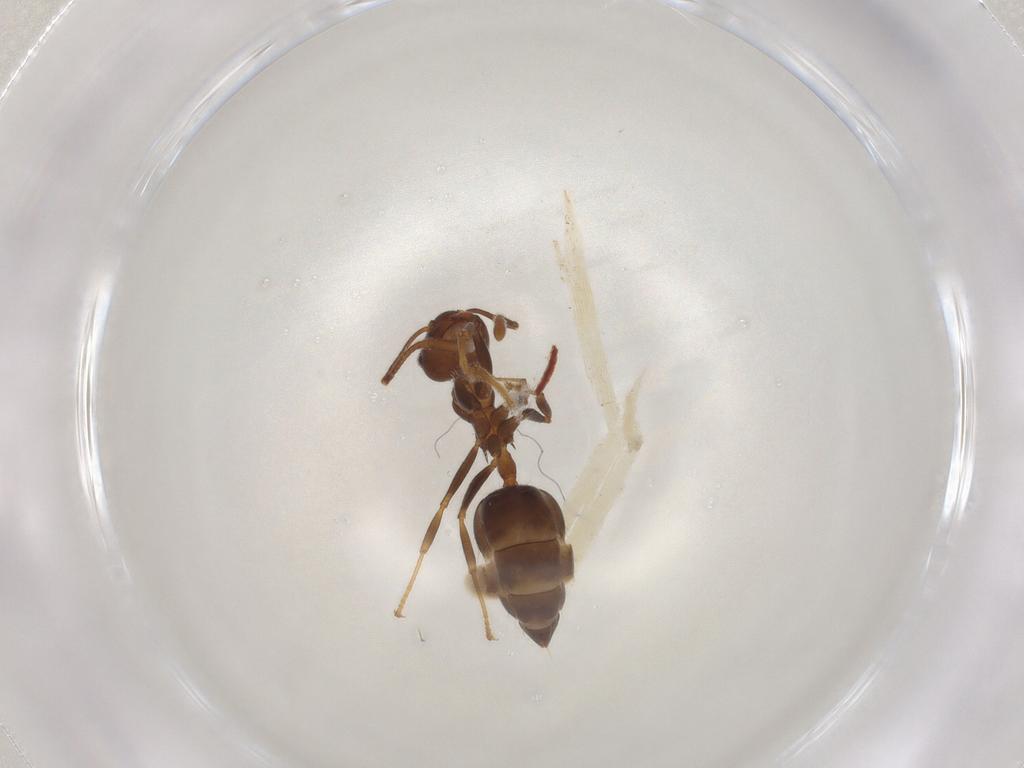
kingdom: Animalia
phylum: Arthropoda
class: Insecta
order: Hymenoptera
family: Formicidae
